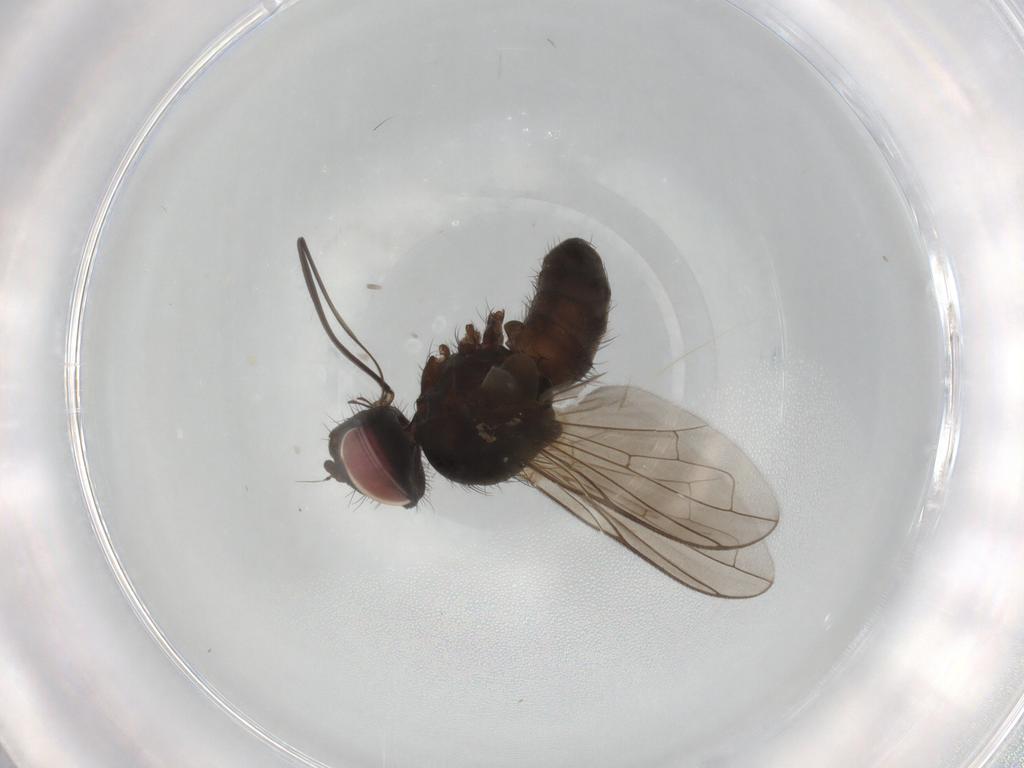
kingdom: Animalia
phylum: Arthropoda
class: Insecta
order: Diptera
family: Tachinidae
